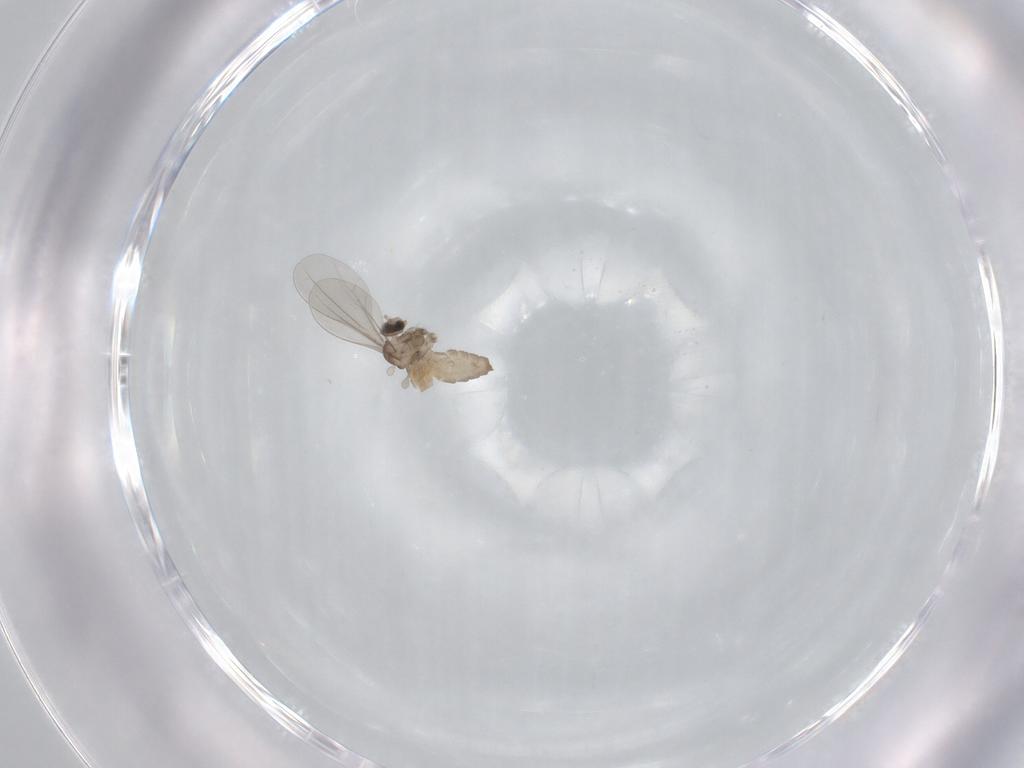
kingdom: Animalia
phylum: Arthropoda
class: Insecta
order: Diptera
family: Cecidomyiidae
